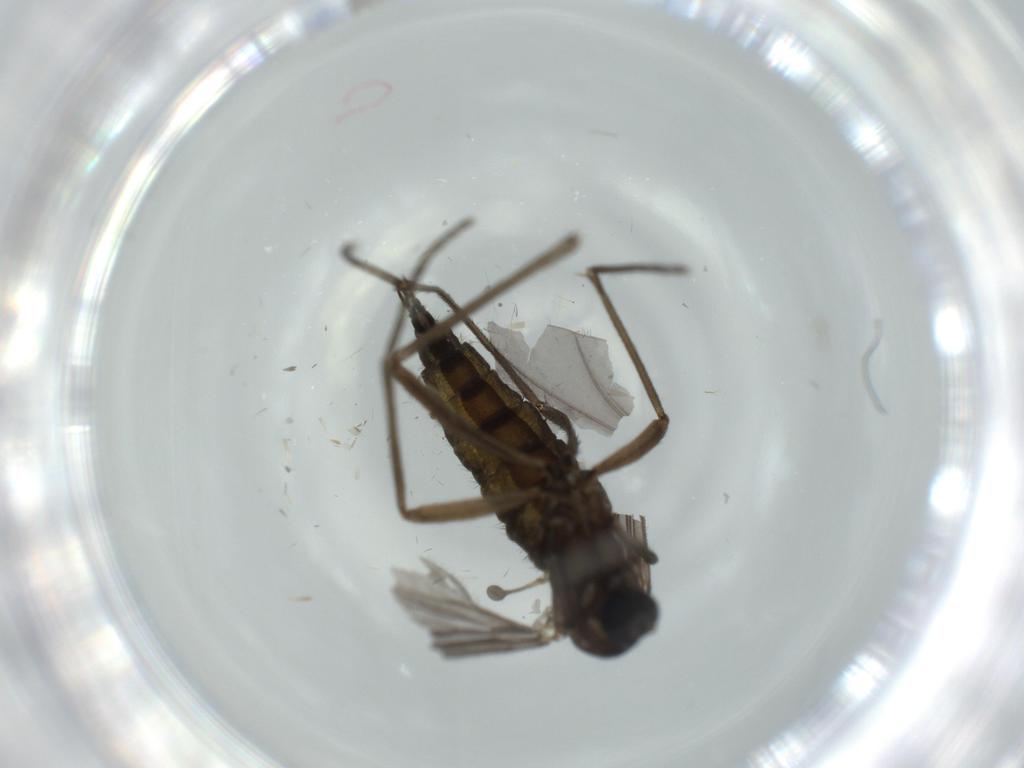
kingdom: Animalia
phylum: Arthropoda
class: Insecta
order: Diptera
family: Sciaridae
